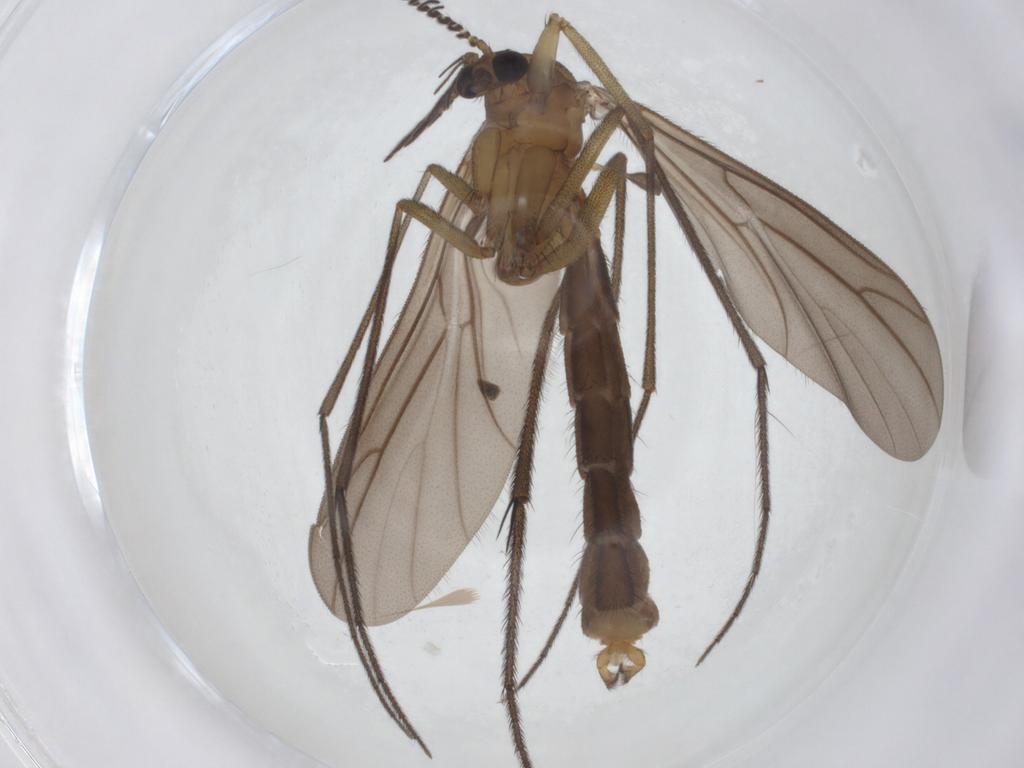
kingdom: Animalia
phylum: Arthropoda
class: Insecta
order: Diptera
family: Ditomyiidae
